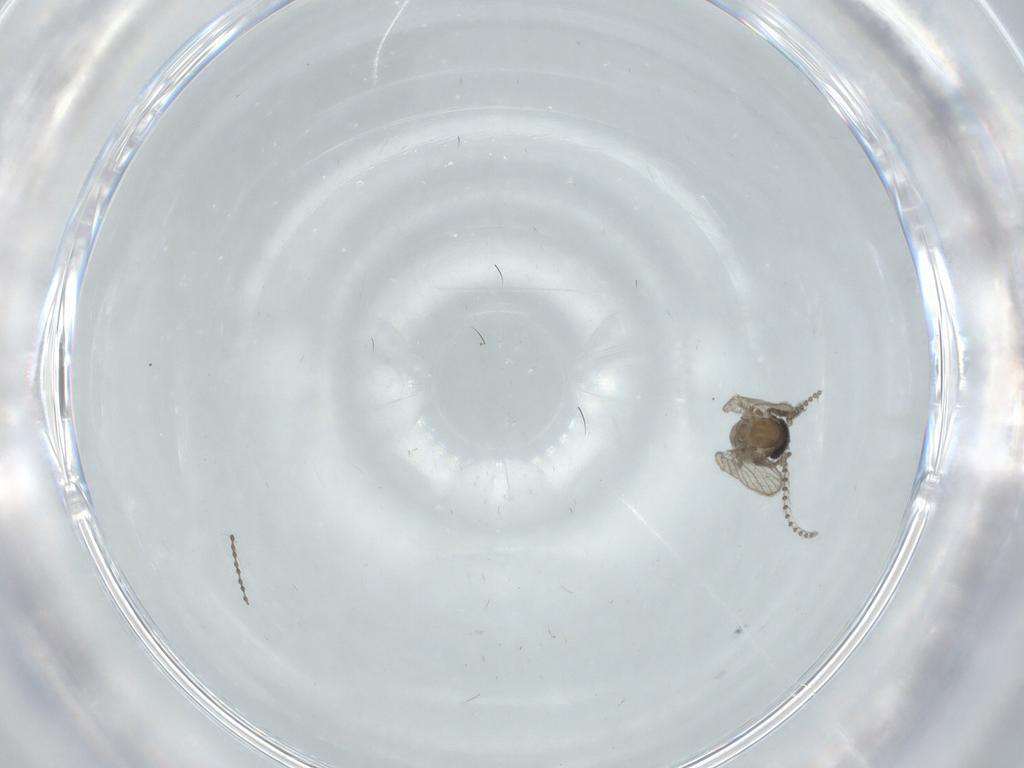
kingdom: Animalia
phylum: Arthropoda
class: Insecta
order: Diptera
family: Psychodidae
